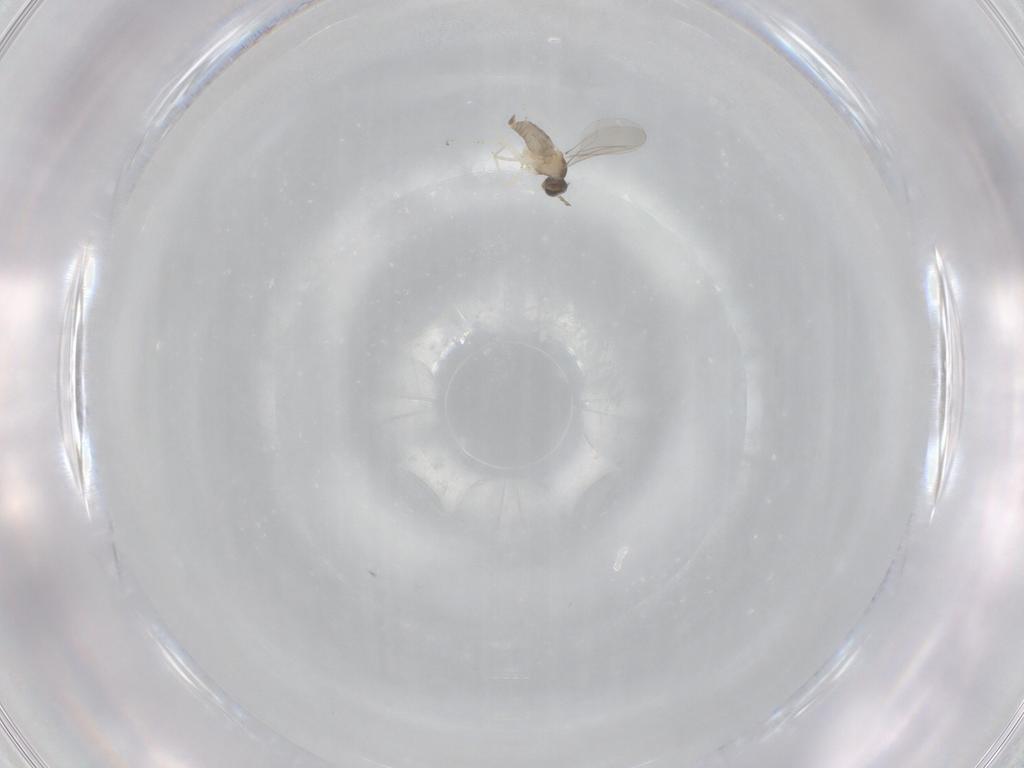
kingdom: Animalia
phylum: Arthropoda
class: Insecta
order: Diptera
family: Cecidomyiidae
